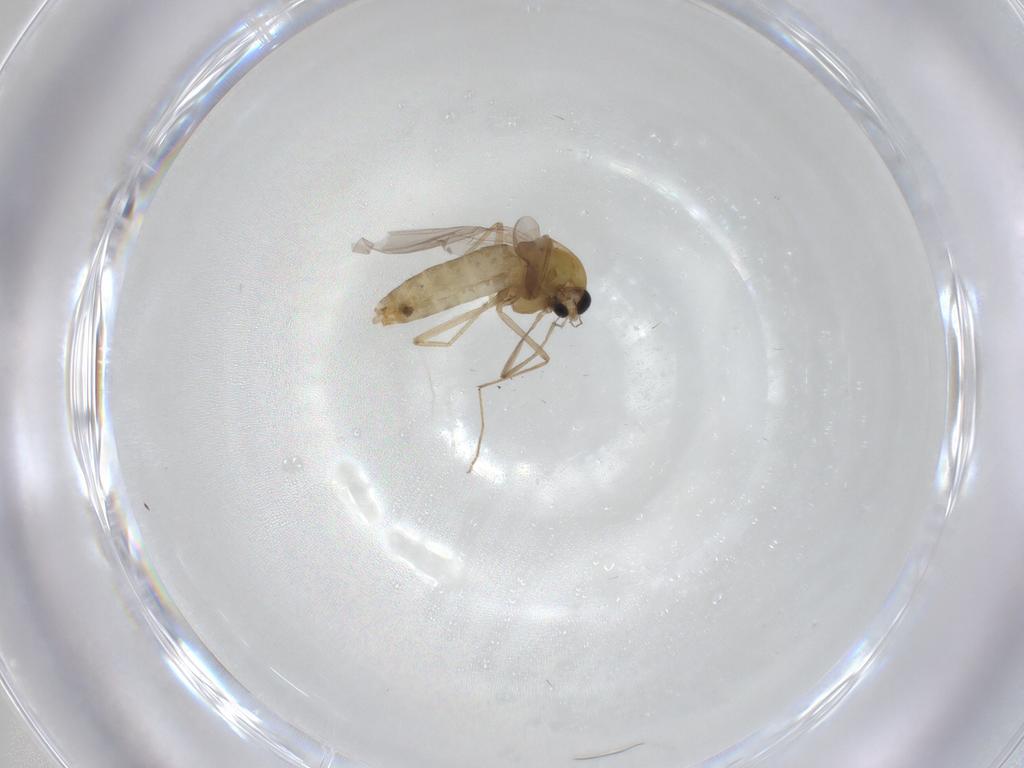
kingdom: Animalia
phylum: Arthropoda
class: Insecta
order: Diptera
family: Chironomidae
